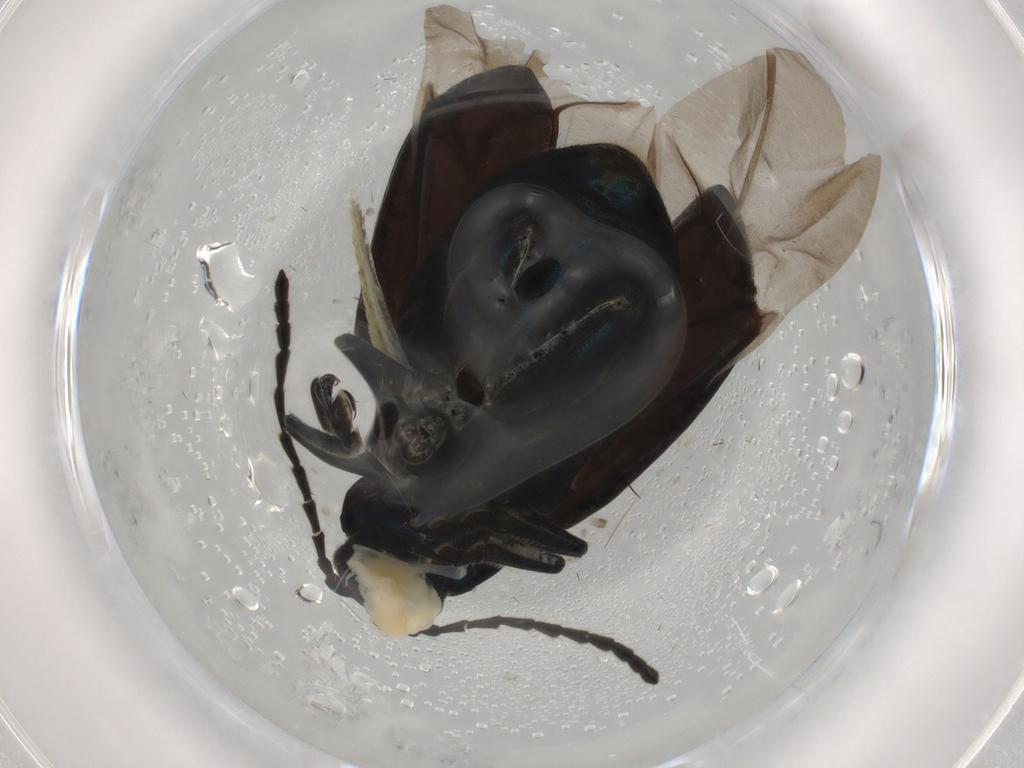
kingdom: Animalia
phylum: Arthropoda
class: Insecta
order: Coleoptera
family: Chrysomelidae
